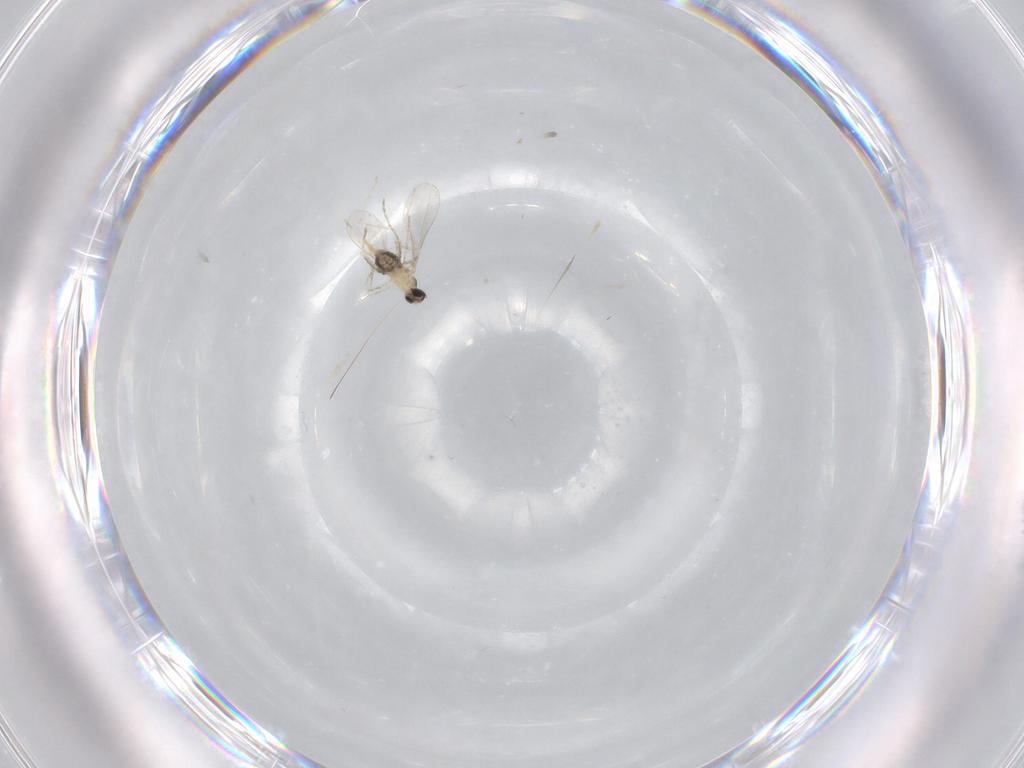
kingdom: Animalia
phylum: Arthropoda
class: Insecta
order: Diptera
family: Cecidomyiidae
